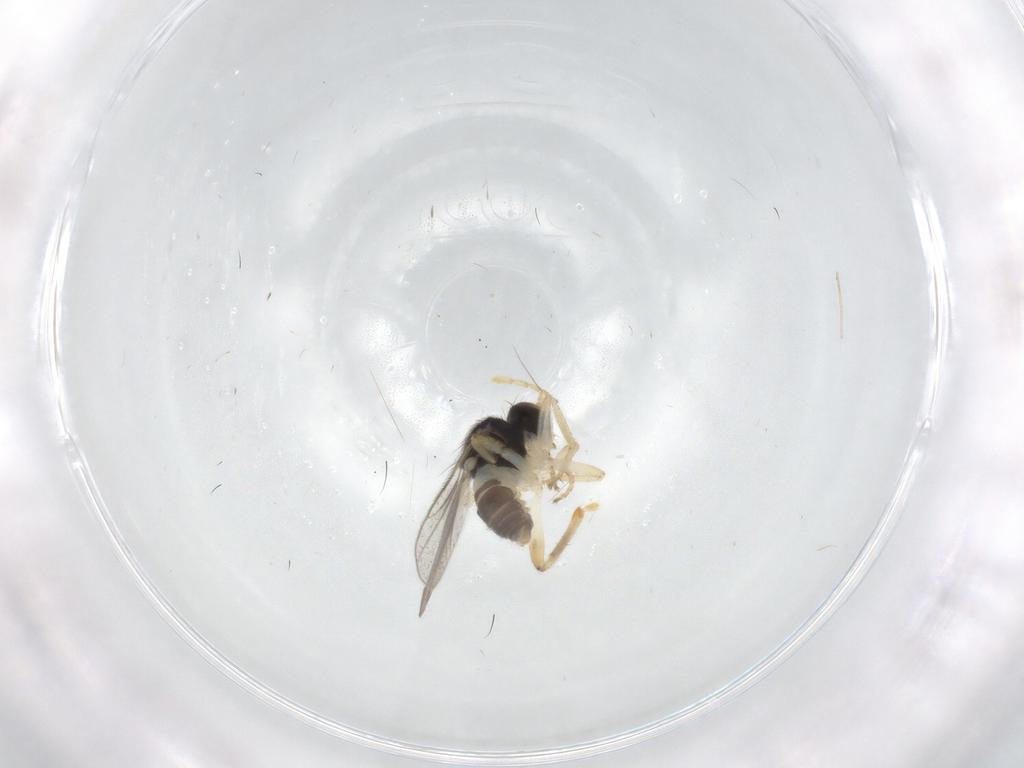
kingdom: Animalia
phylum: Arthropoda
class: Insecta
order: Diptera
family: Hybotidae
